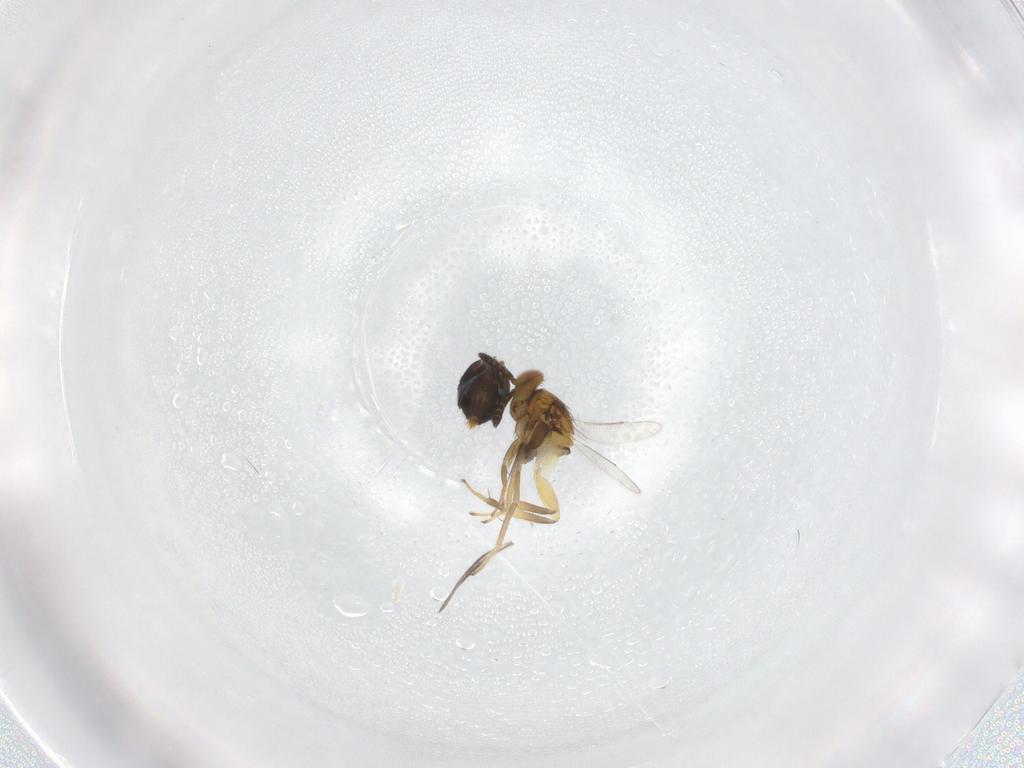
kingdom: Animalia
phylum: Arthropoda
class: Insecta
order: Hymenoptera
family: Aphelinidae
